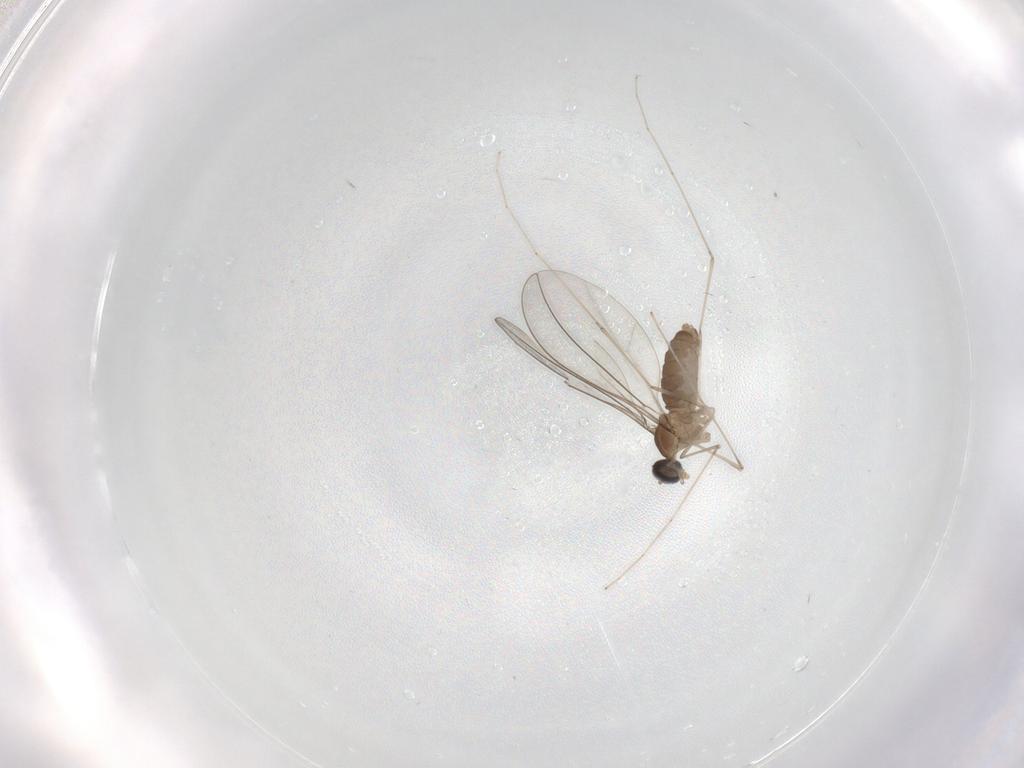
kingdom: Animalia
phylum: Arthropoda
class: Insecta
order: Diptera
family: Cecidomyiidae
